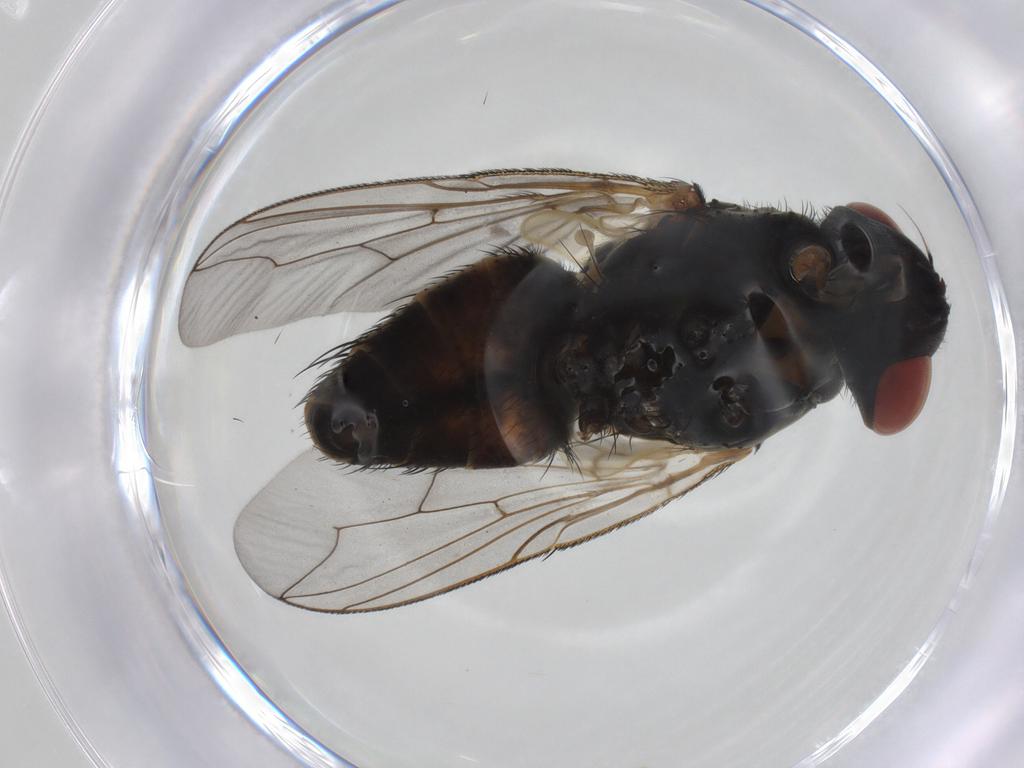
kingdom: Animalia
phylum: Arthropoda
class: Insecta
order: Diptera
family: Sarcophagidae
